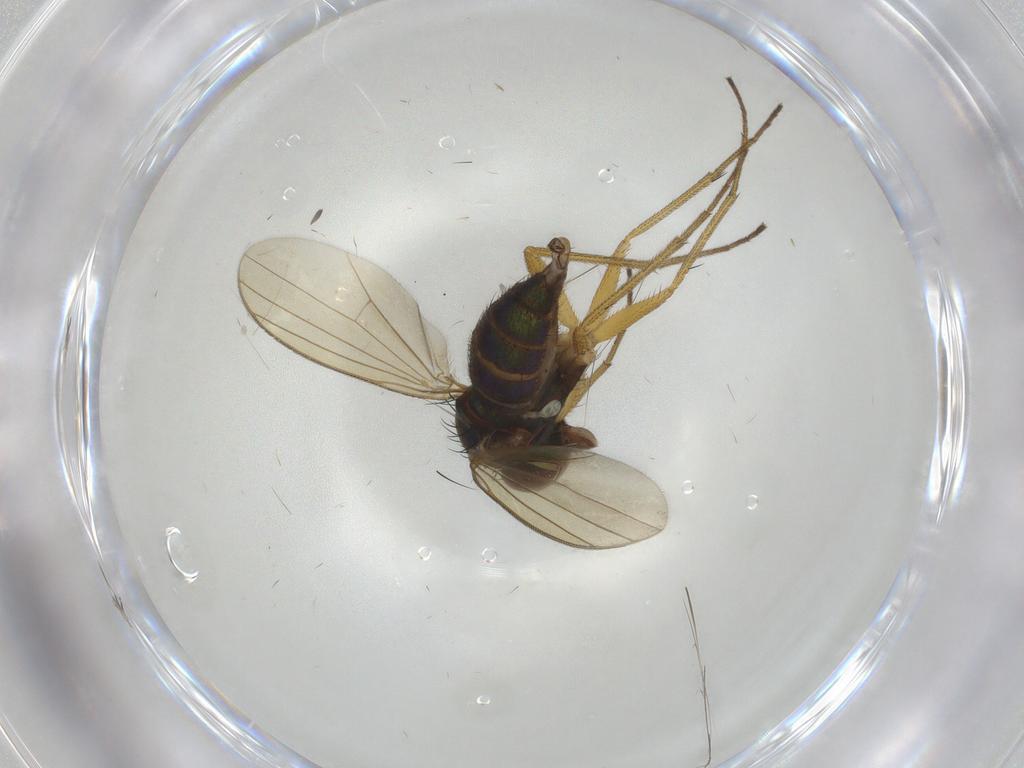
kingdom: Animalia
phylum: Arthropoda
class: Insecta
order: Diptera
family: Dolichopodidae
